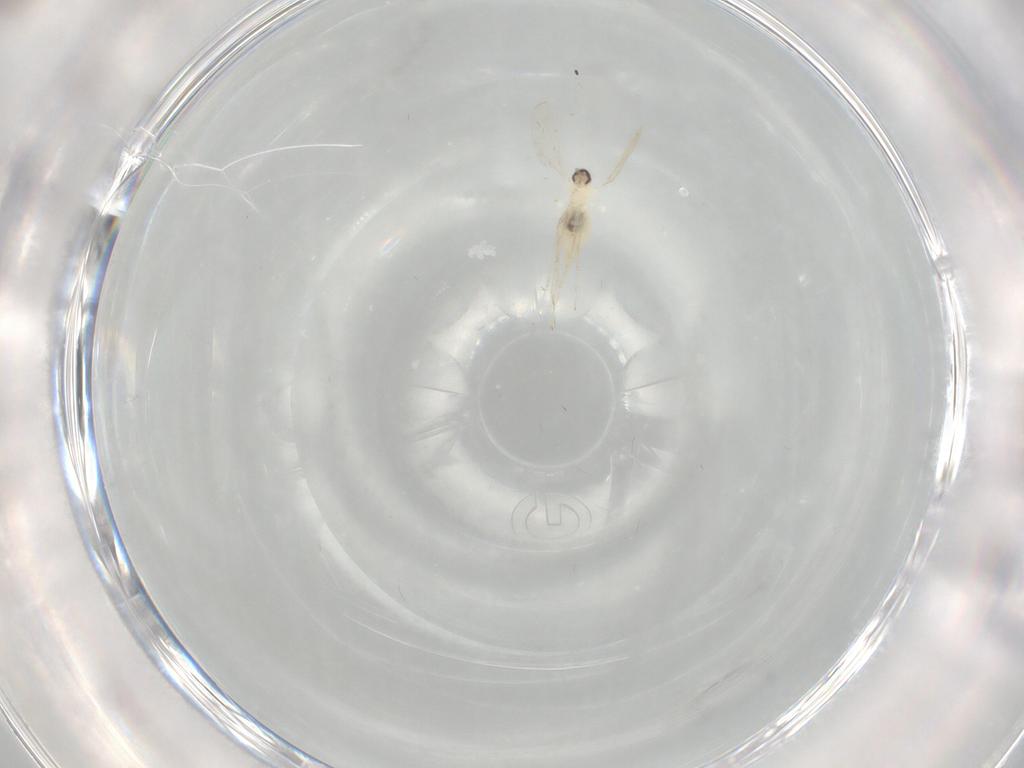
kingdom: Animalia
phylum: Arthropoda
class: Insecta
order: Diptera
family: Cecidomyiidae
